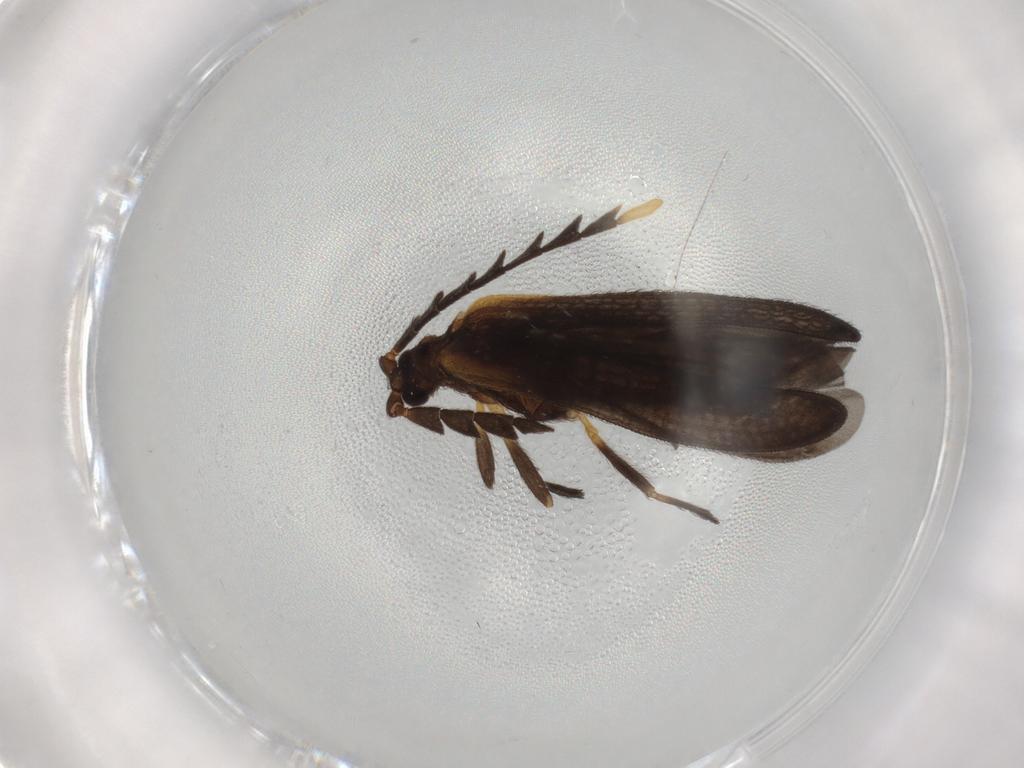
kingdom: Animalia
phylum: Arthropoda
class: Insecta
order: Coleoptera
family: Lycidae
